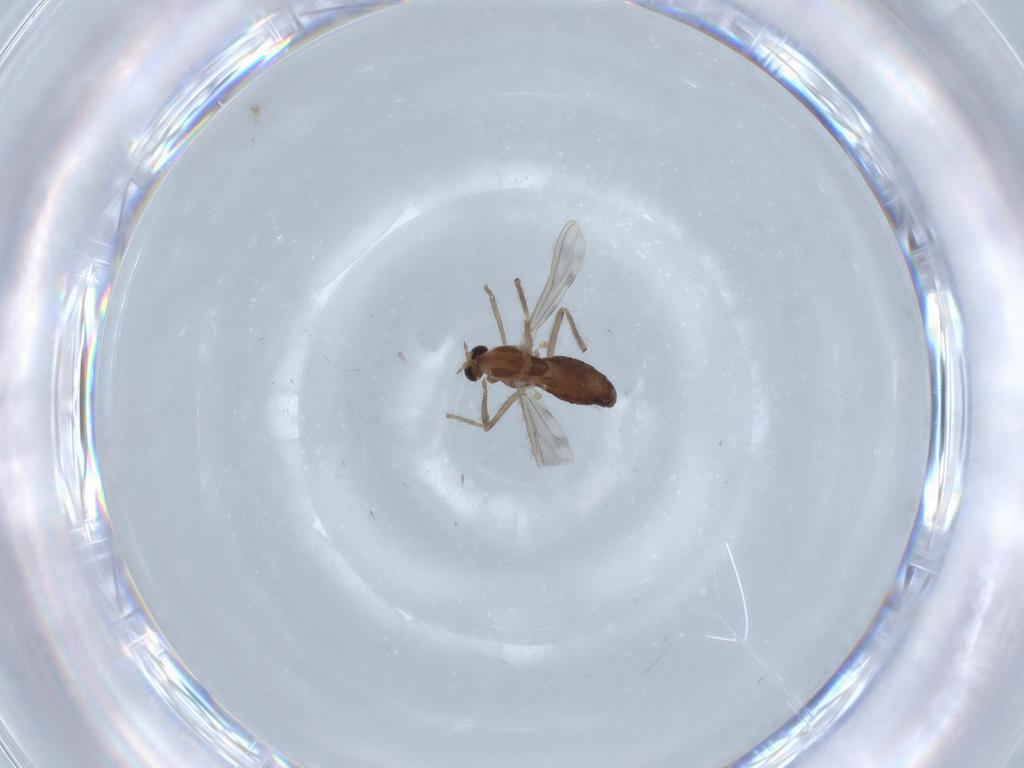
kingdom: Animalia
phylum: Arthropoda
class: Insecta
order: Diptera
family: Chironomidae
